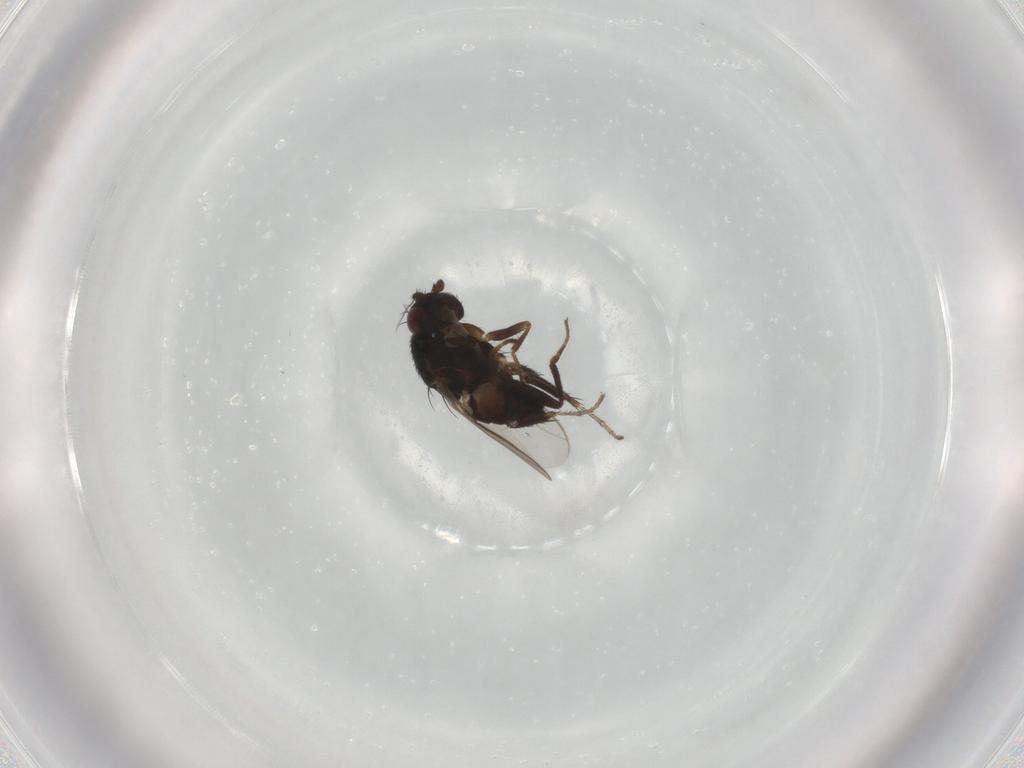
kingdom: Animalia
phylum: Arthropoda
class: Insecta
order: Diptera
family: Sphaeroceridae
